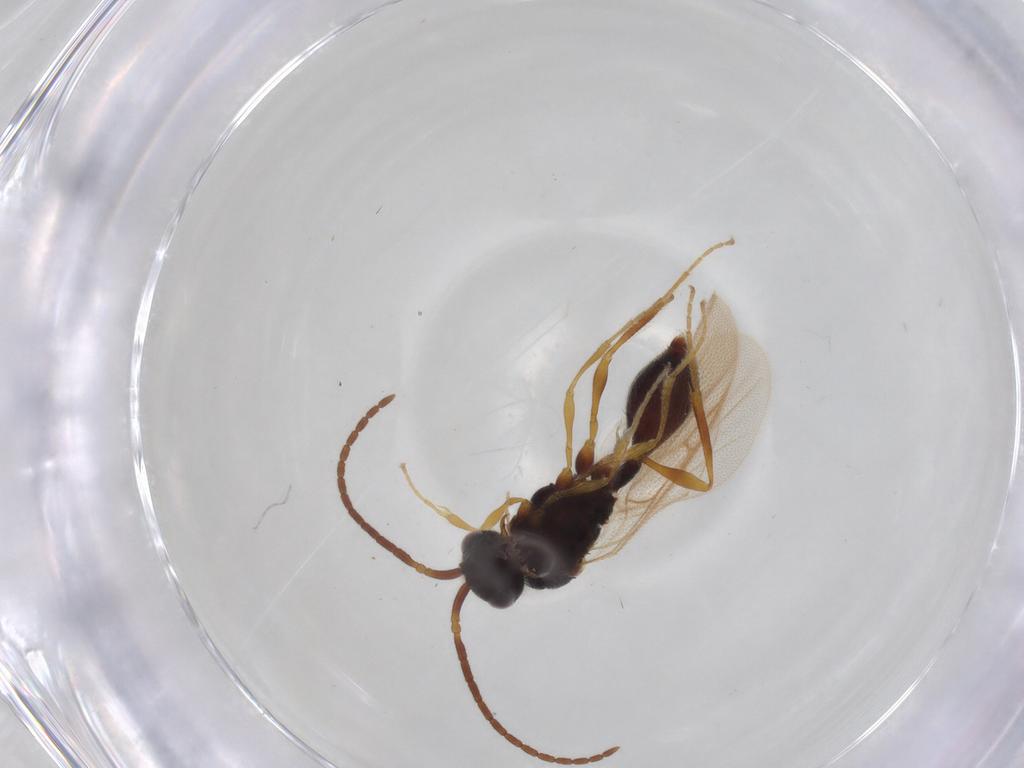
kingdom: Animalia
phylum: Arthropoda
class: Insecta
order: Hymenoptera
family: Diapriidae
